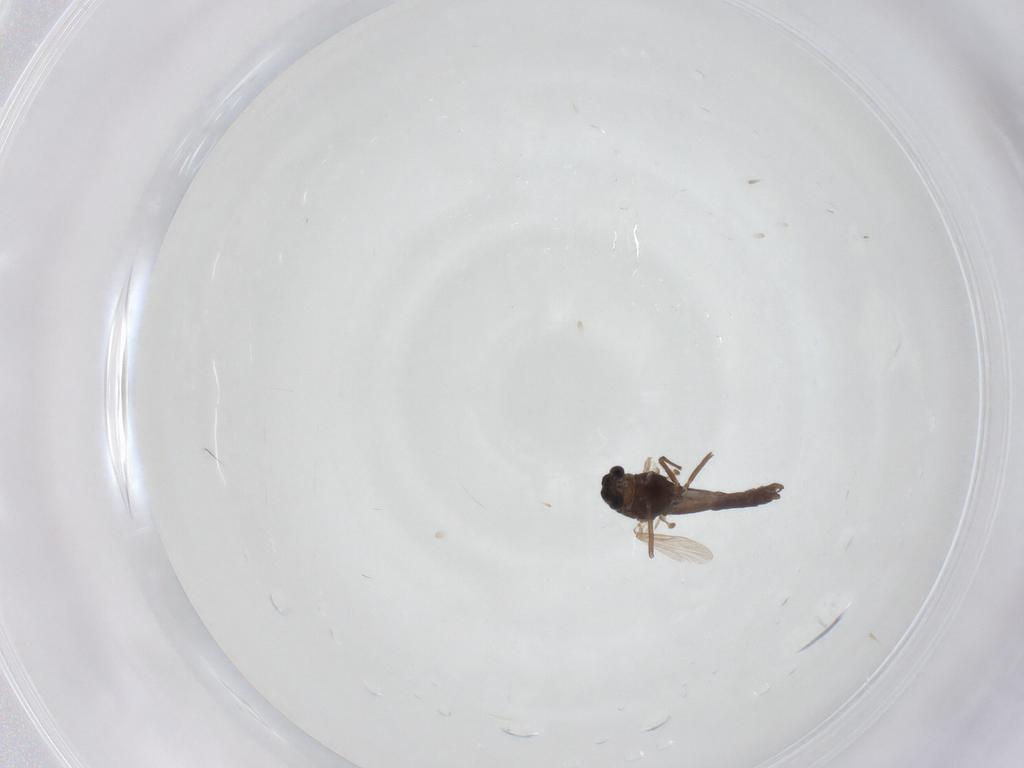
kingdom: Animalia
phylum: Arthropoda
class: Insecta
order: Diptera
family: Chironomidae
